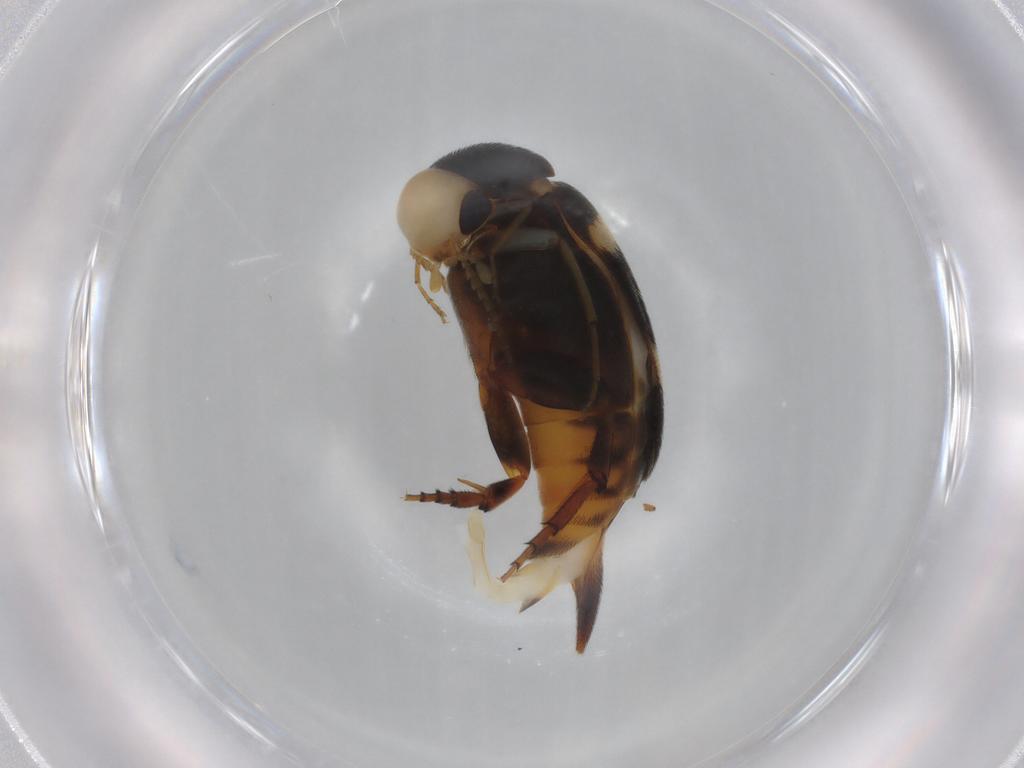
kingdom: Animalia
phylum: Arthropoda
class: Insecta
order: Coleoptera
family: Mordellidae
